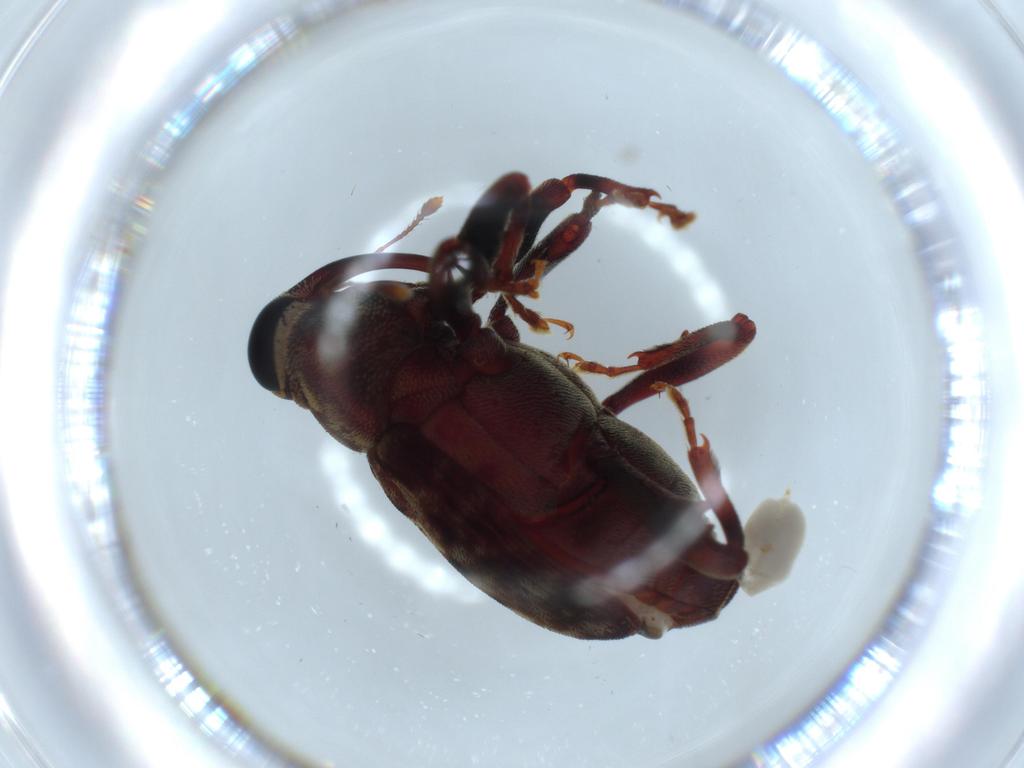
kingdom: Animalia
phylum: Arthropoda
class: Insecta
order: Coleoptera
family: Curculionidae
